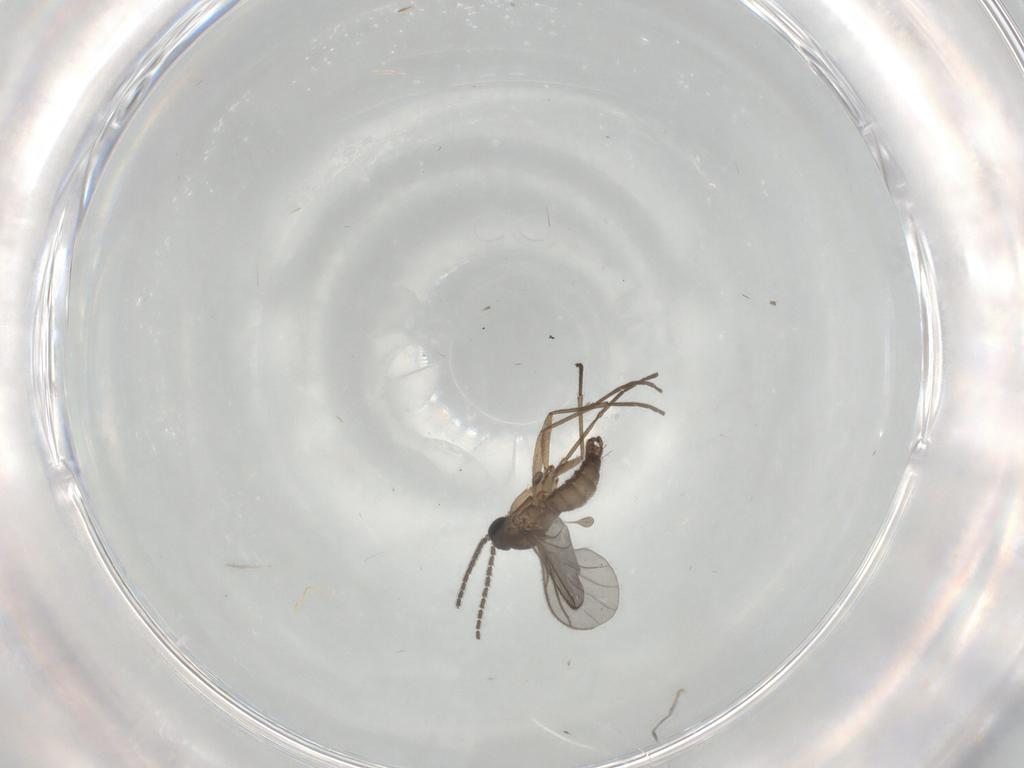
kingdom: Animalia
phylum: Arthropoda
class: Insecta
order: Diptera
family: Sciaridae
